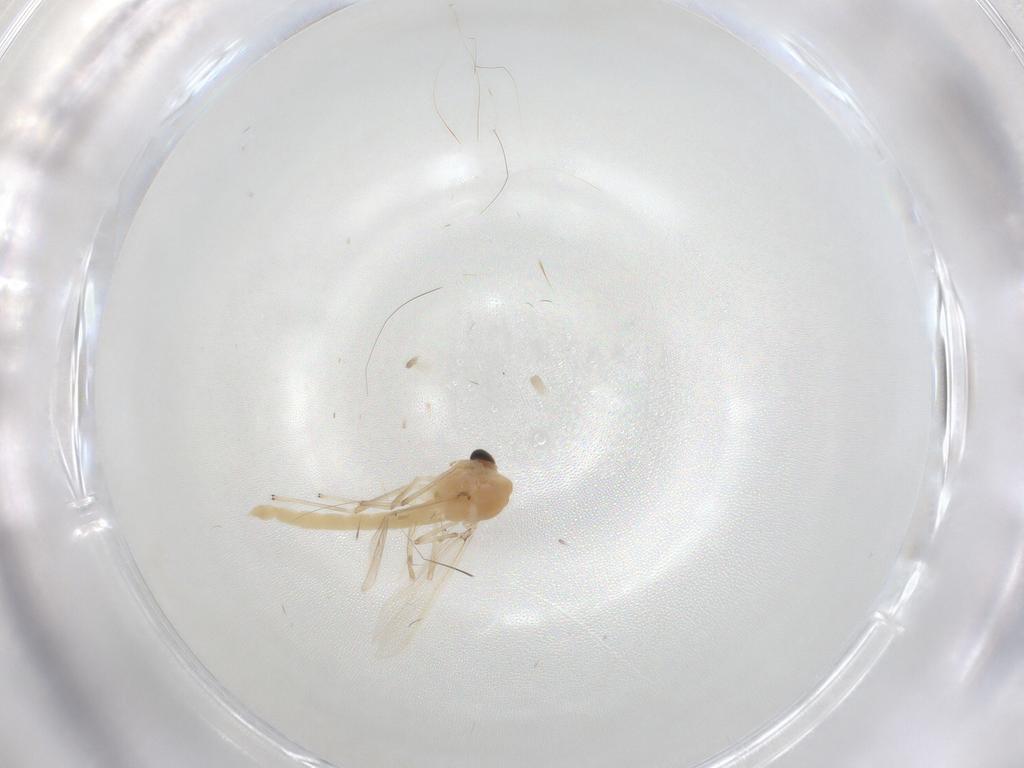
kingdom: Animalia
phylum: Arthropoda
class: Insecta
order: Diptera
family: Chironomidae
